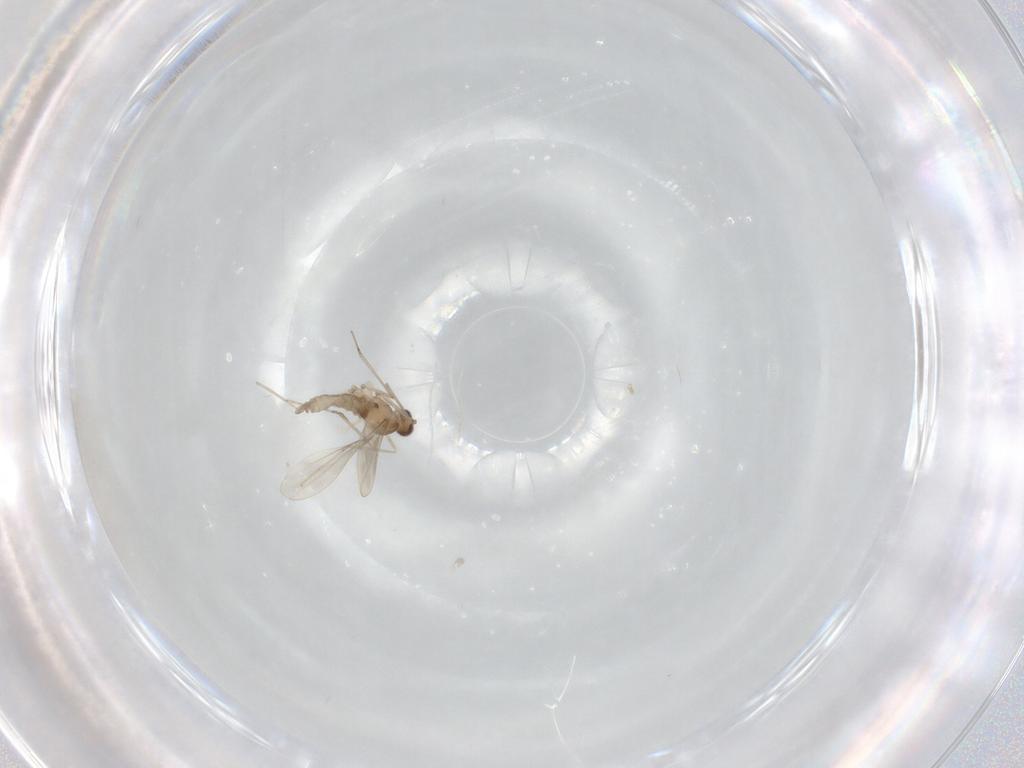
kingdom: Animalia
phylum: Arthropoda
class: Insecta
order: Diptera
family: Cecidomyiidae
